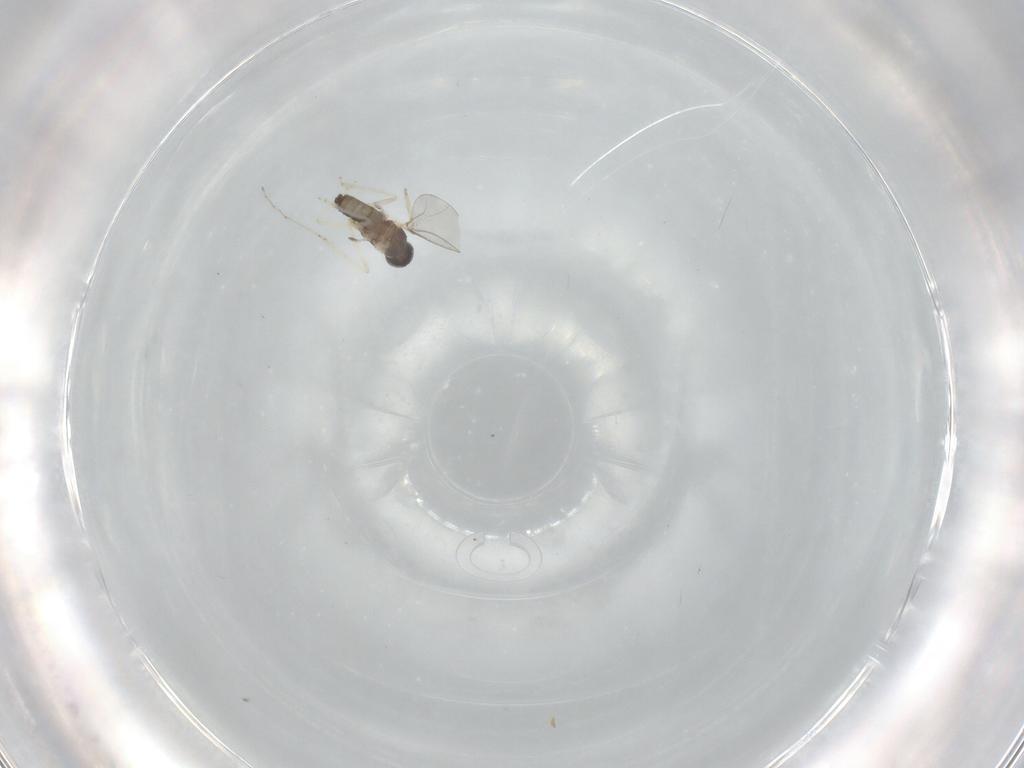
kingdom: Animalia
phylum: Arthropoda
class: Insecta
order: Diptera
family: Cecidomyiidae
